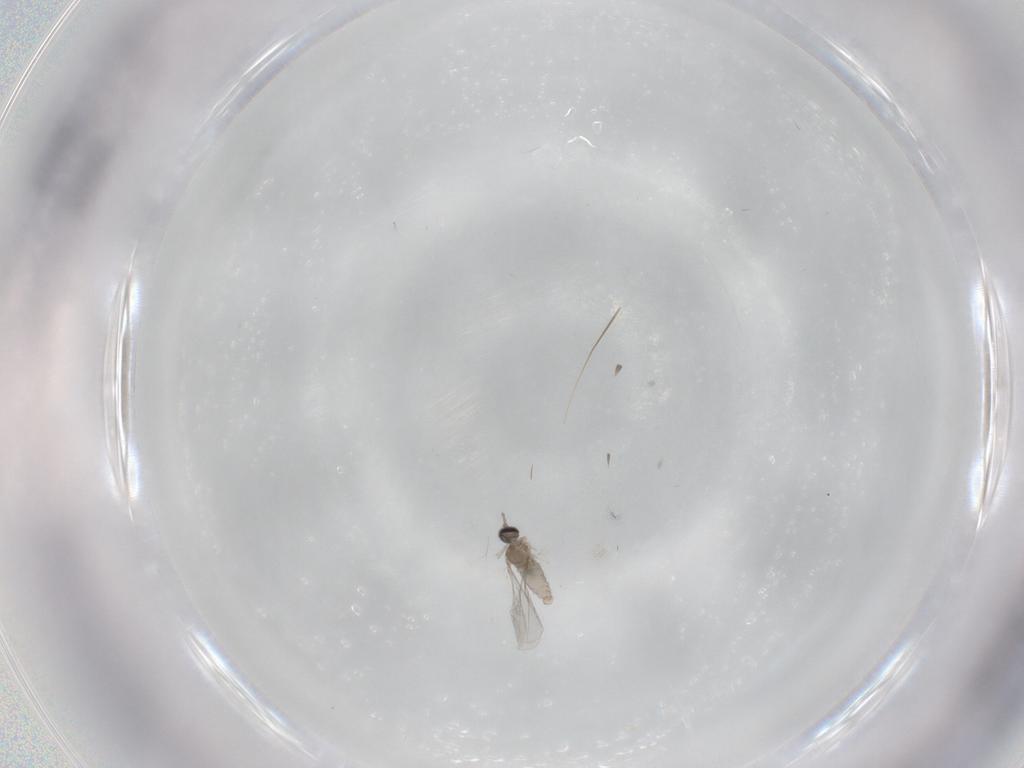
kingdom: Animalia
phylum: Arthropoda
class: Insecta
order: Diptera
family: Cecidomyiidae
